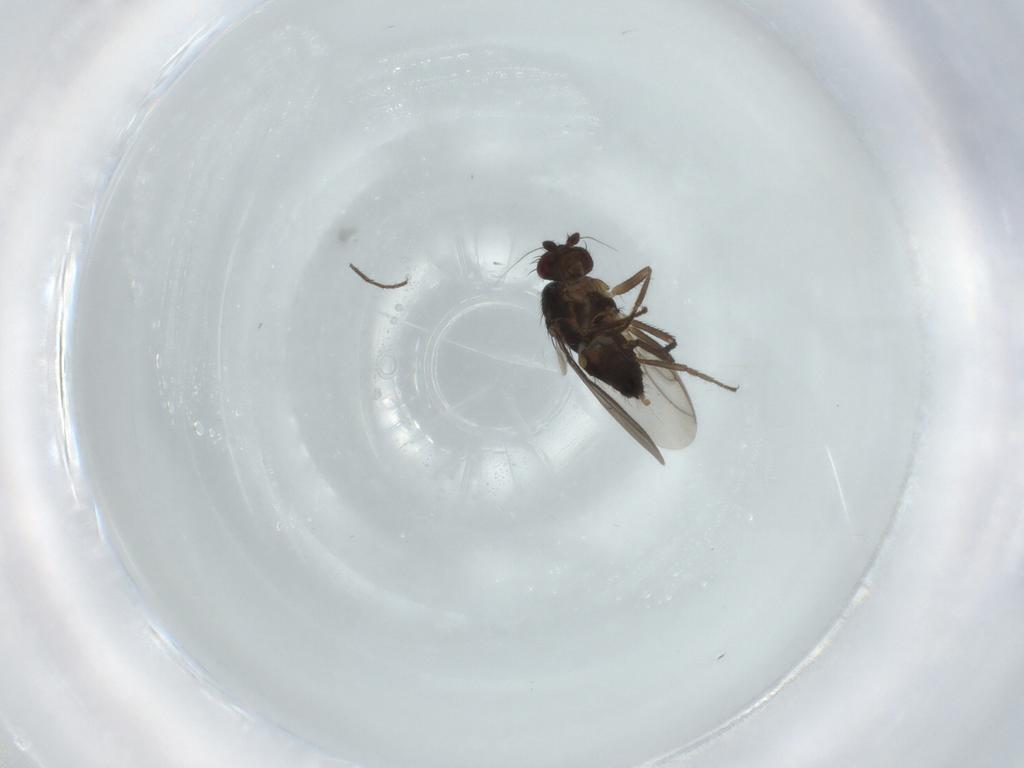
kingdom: Animalia
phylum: Arthropoda
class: Insecta
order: Diptera
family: Sphaeroceridae
